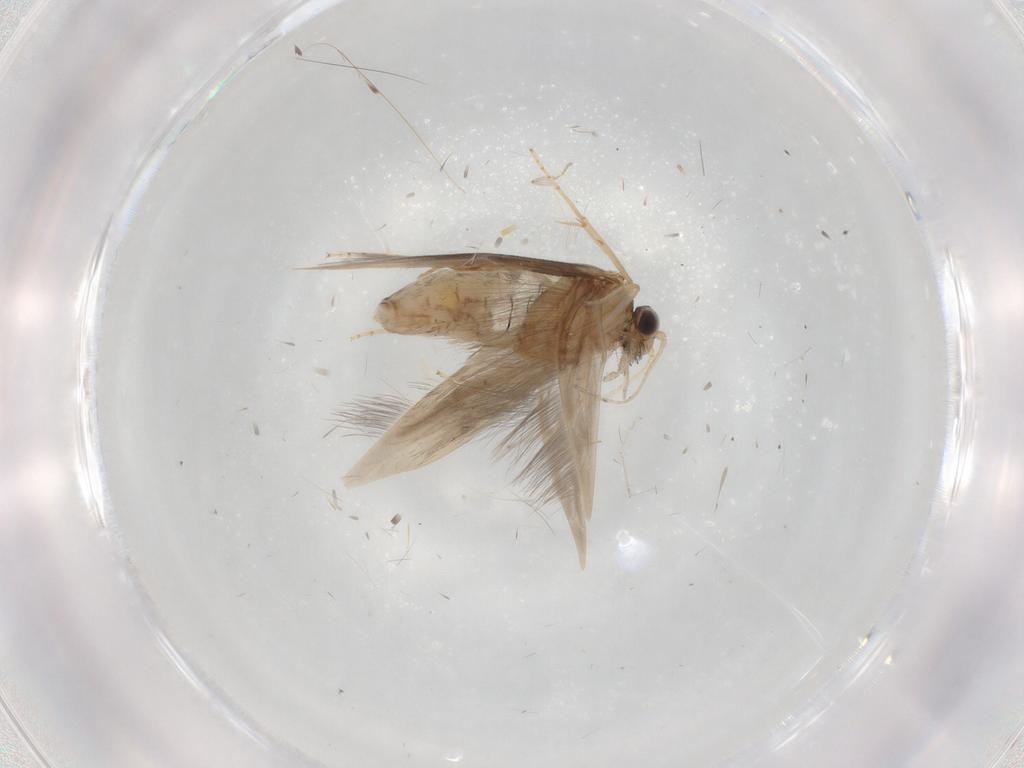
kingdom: Animalia
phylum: Arthropoda
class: Insecta
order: Trichoptera
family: Hydroptilidae
